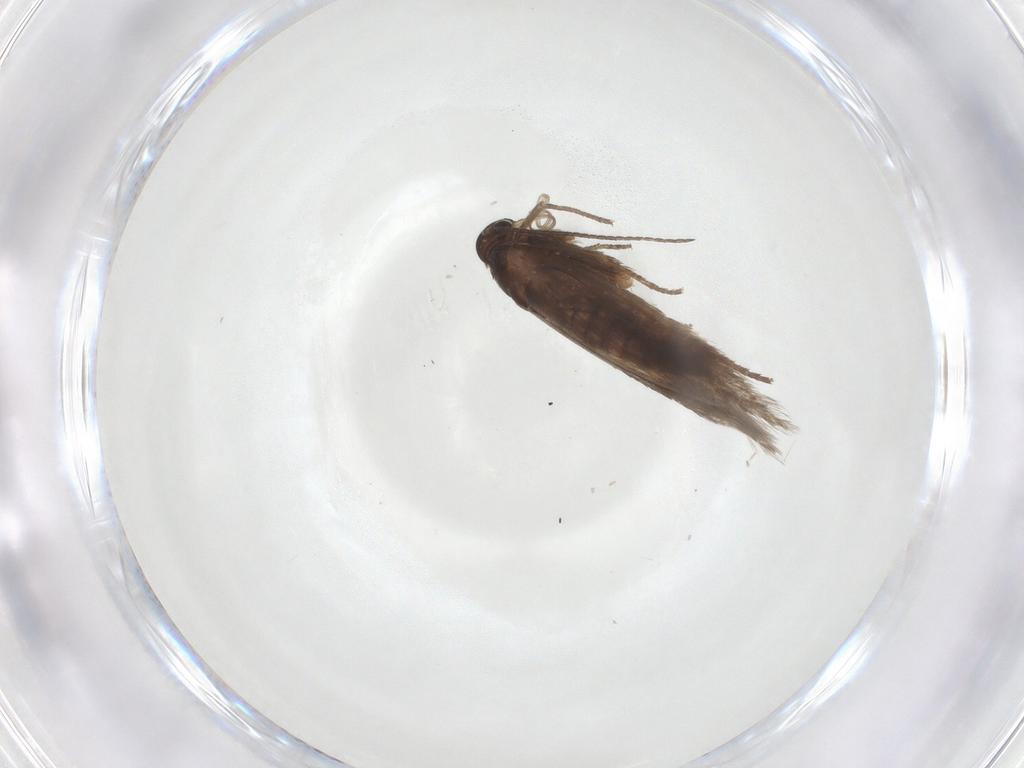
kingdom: Animalia
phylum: Arthropoda
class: Insecta
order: Lepidoptera
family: Scythrididae
